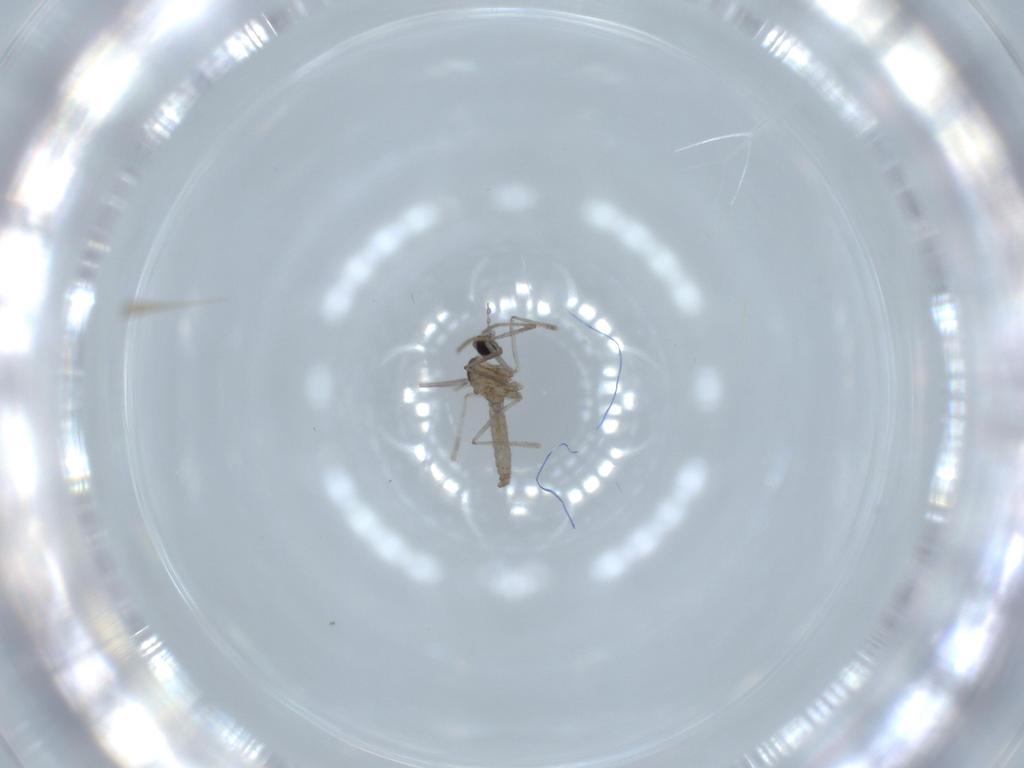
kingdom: Animalia
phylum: Arthropoda
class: Insecta
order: Diptera
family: Cecidomyiidae
